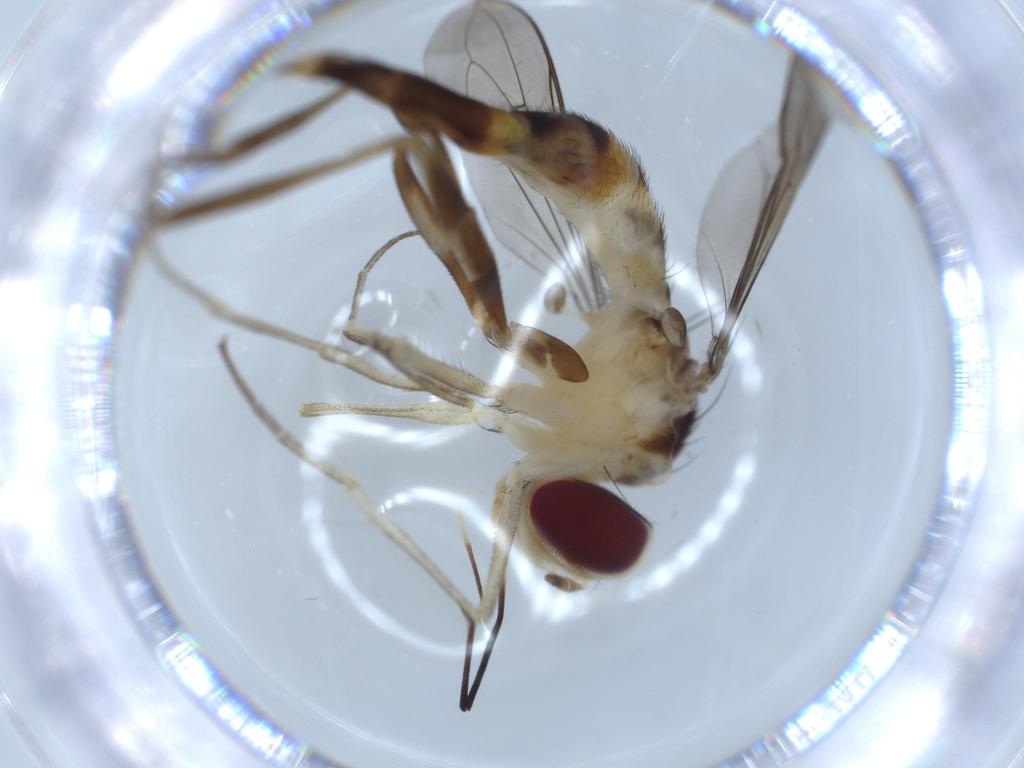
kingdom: Animalia
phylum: Arthropoda
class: Insecta
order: Diptera
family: Conopidae
